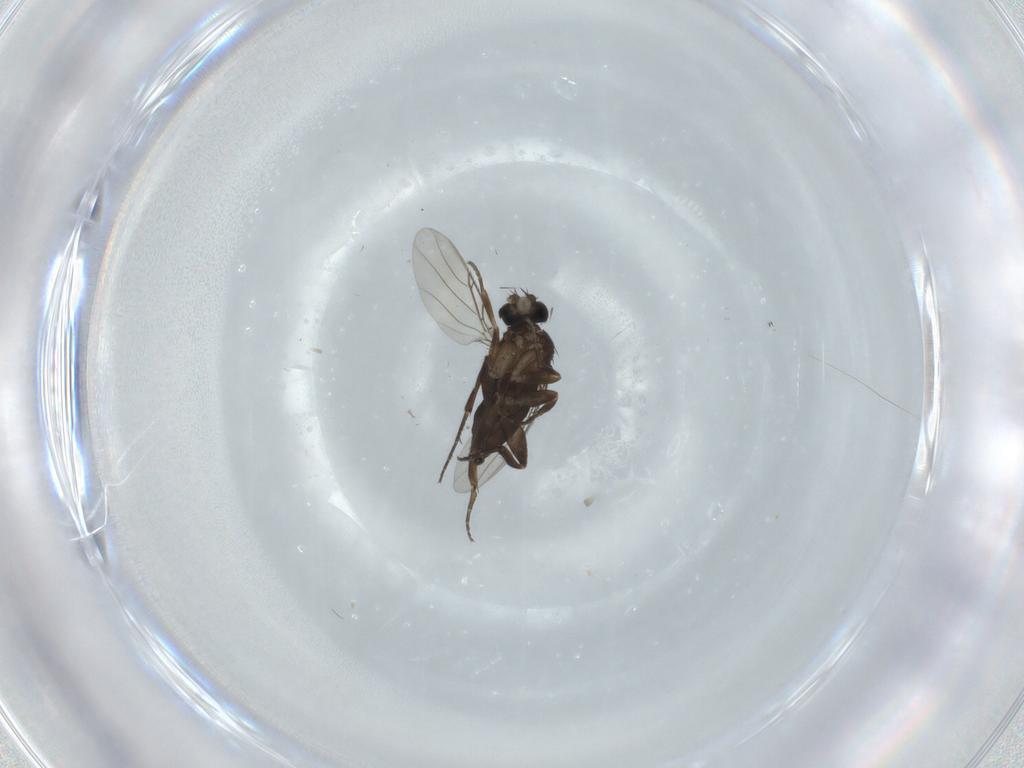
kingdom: Animalia
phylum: Arthropoda
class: Insecta
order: Diptera
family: Phoridae
